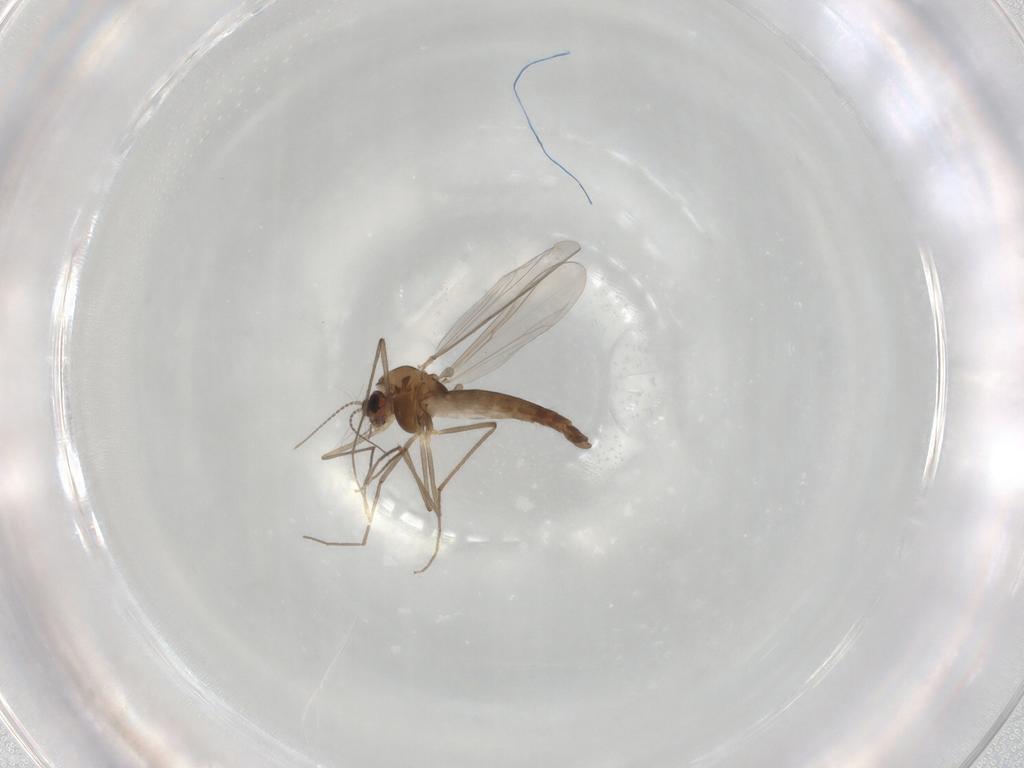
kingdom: Animalia
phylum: Arthropoda
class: Insecta
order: Diptera
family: Chironomidae
